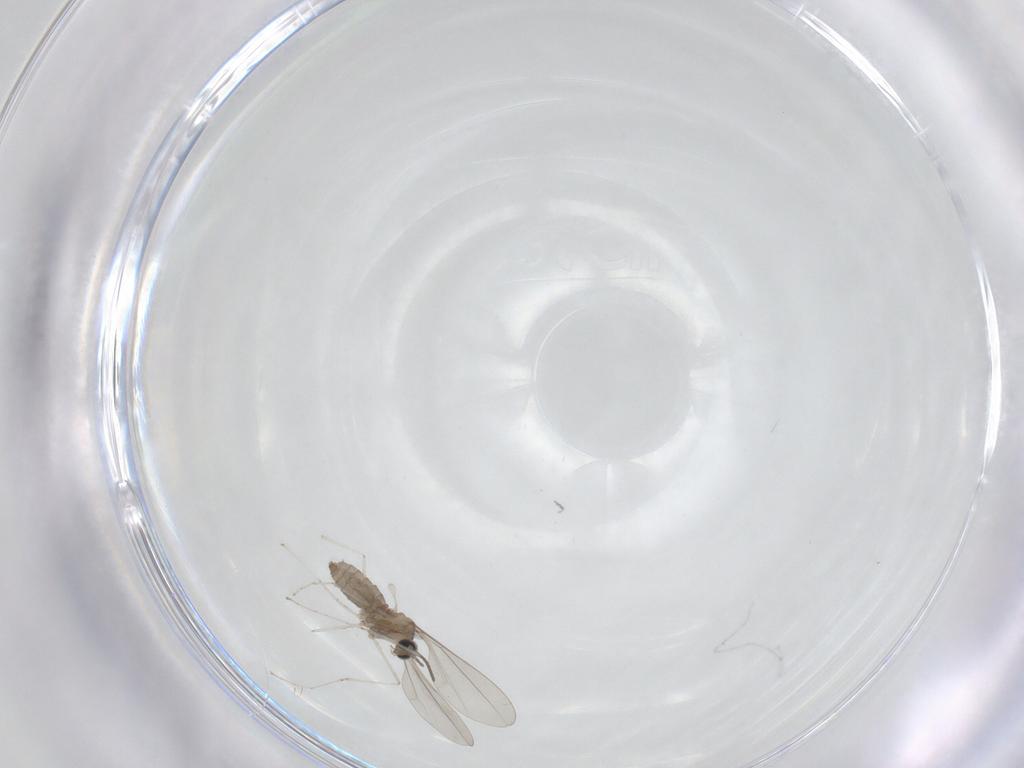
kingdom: Animalia
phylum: Arthropoda
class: Insecta
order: Diptera
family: Cecidomyiidae
